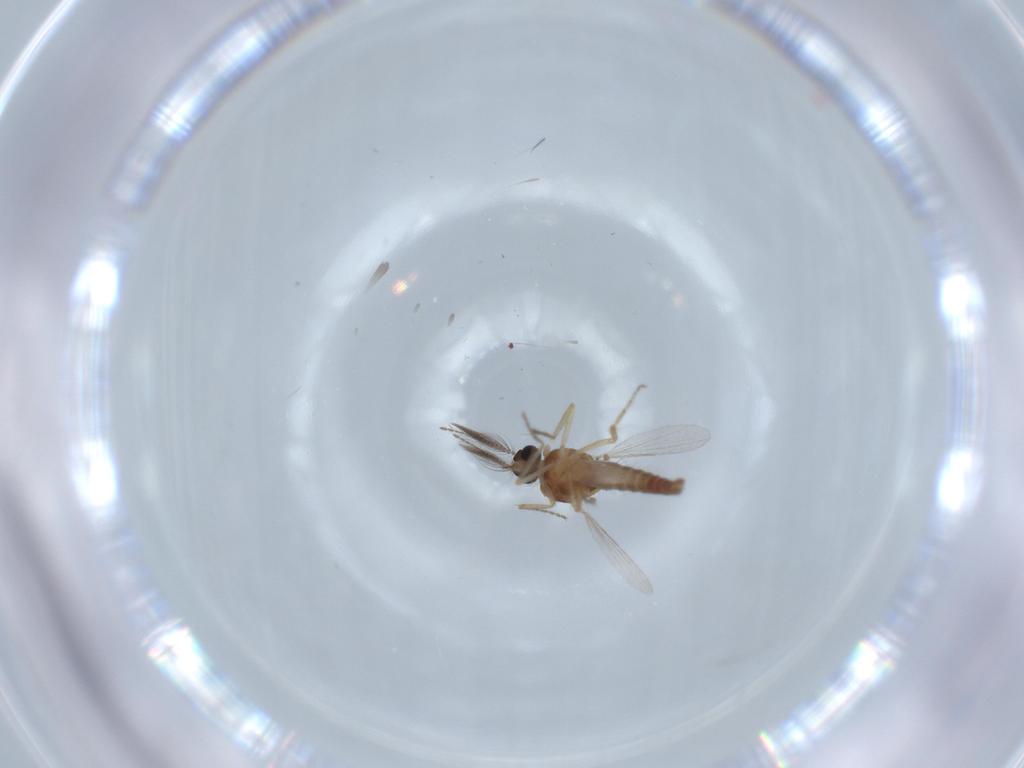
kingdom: Animalia
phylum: Arthropoda
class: Insecta
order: Diptera
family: Ceratopogonidae
